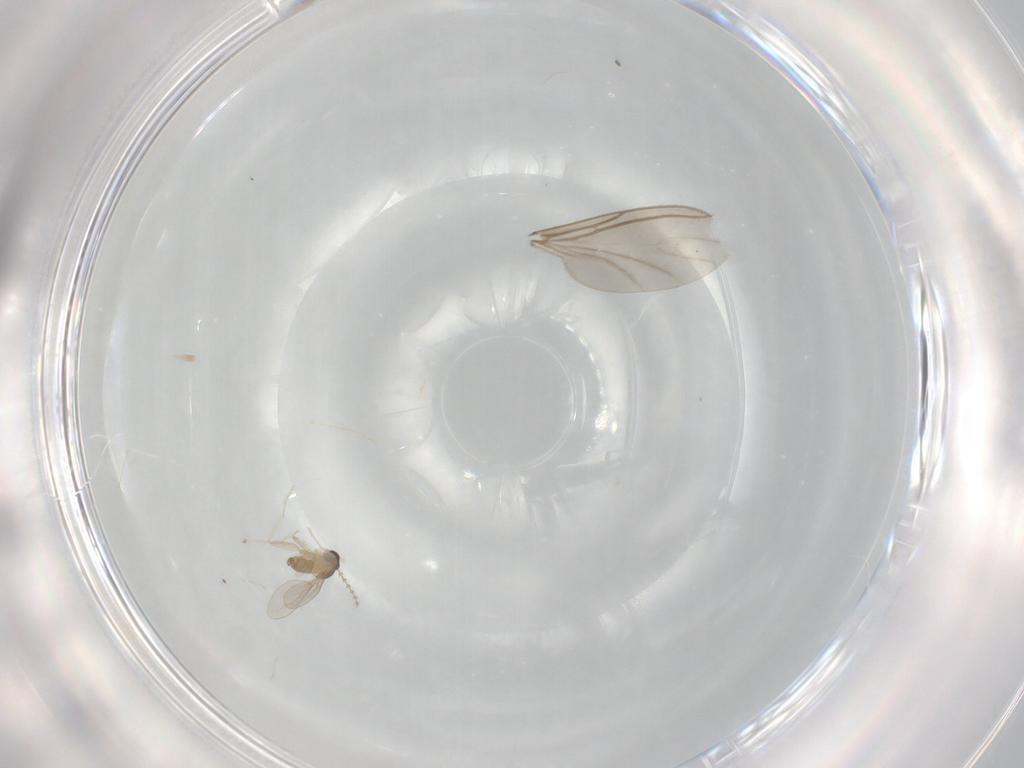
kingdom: Animalia
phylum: Arthropoda
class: Insecta
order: Diptera
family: Sciaridae
